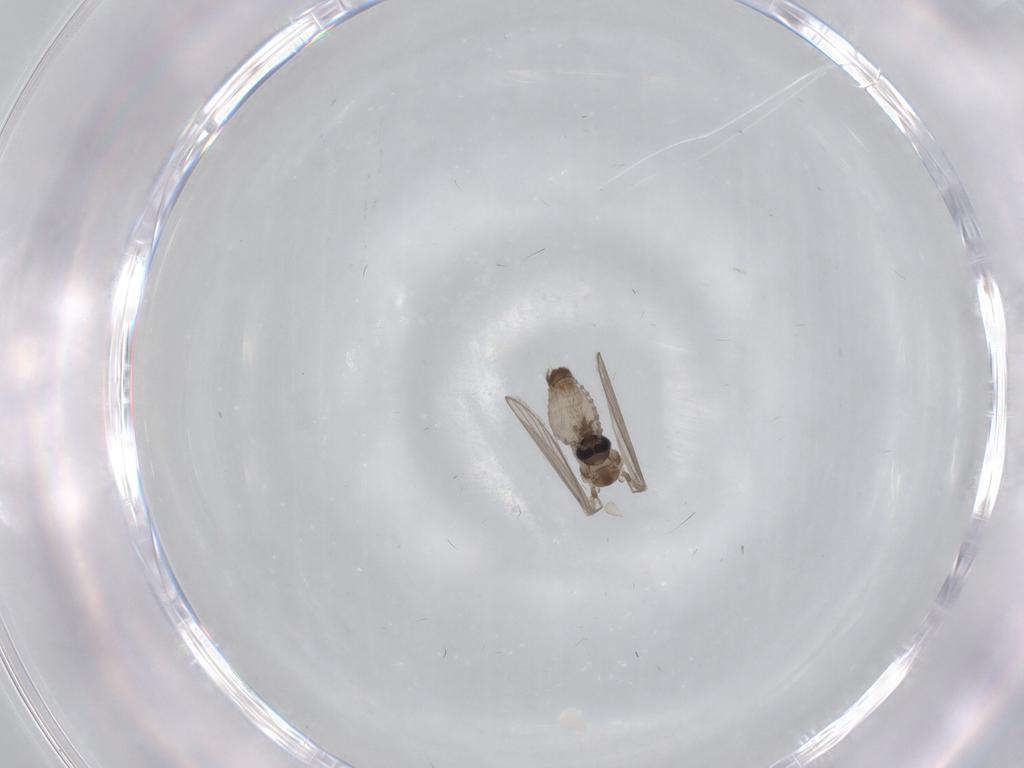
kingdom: Animalia
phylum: Arthropoda
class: Insecta
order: Diptera
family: Psychodidae
